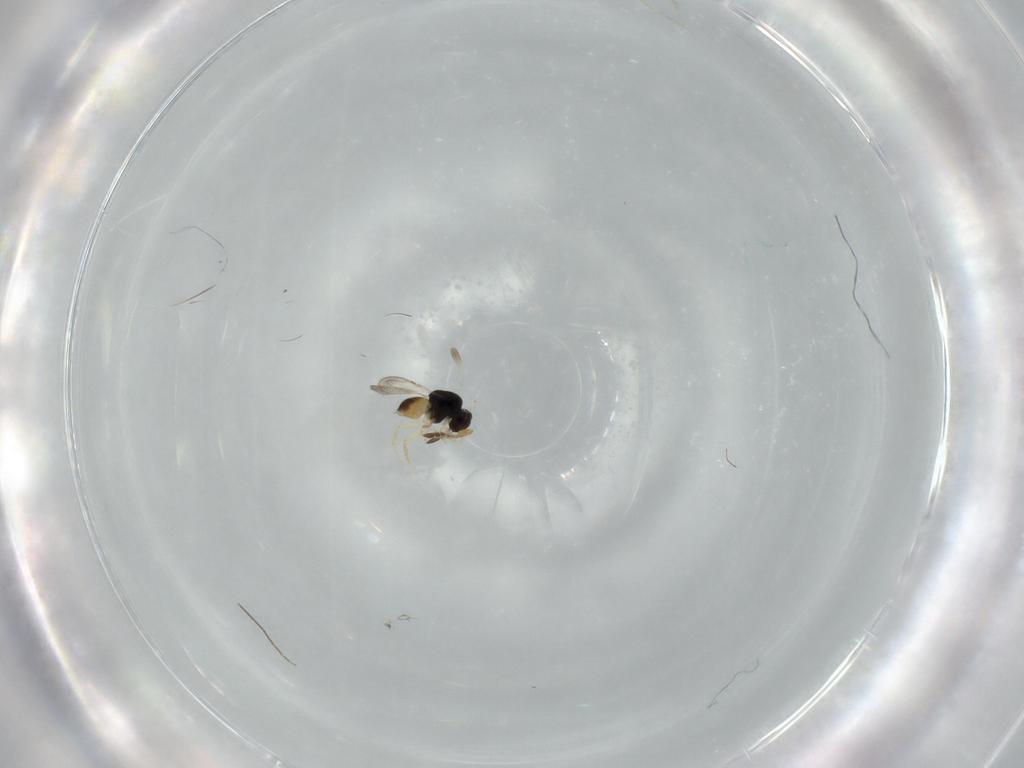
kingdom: Animalia
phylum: Arthropoda
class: Insecta
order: Hymenoptera
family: Ceraphronidae
